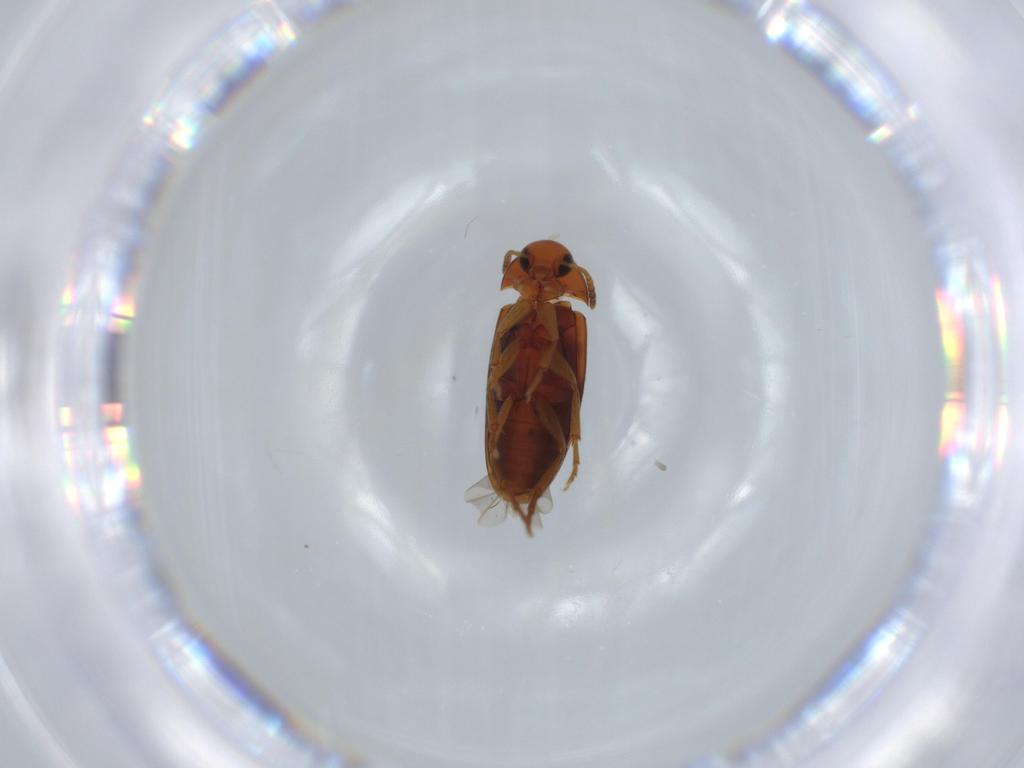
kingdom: Animalia
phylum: Arthropoda
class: Insecta
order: Coleoptera
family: Scraptiidae
